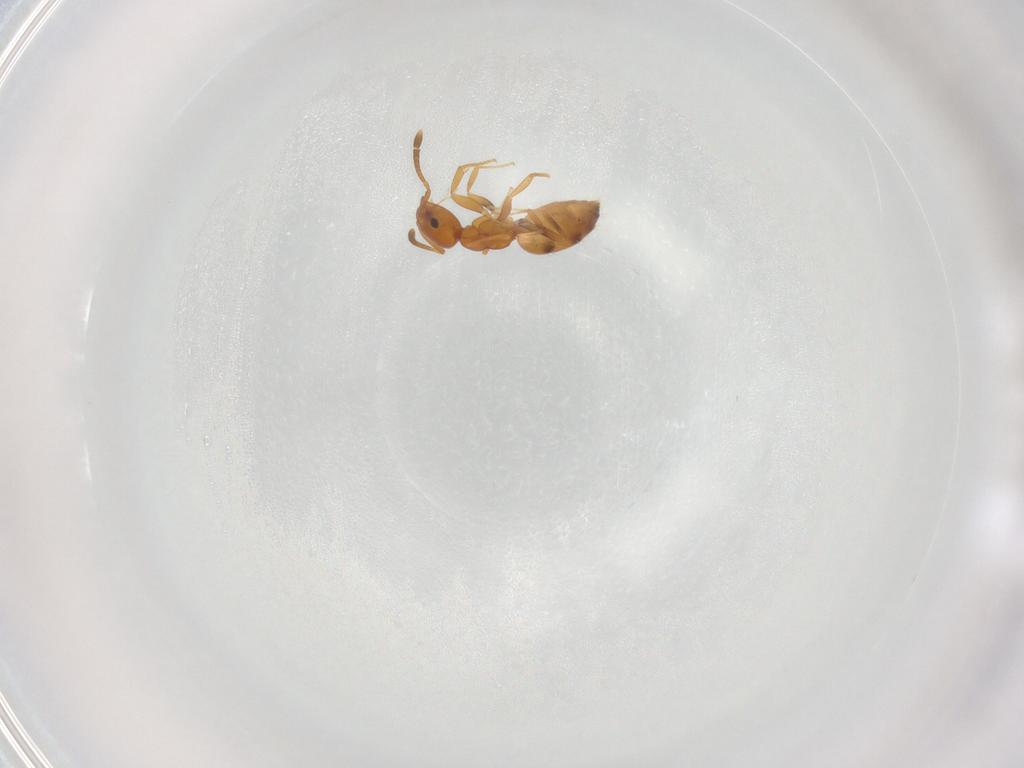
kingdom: Animalia
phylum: Arthropoda
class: Insecta
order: Hymenoptera
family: Formicidae
